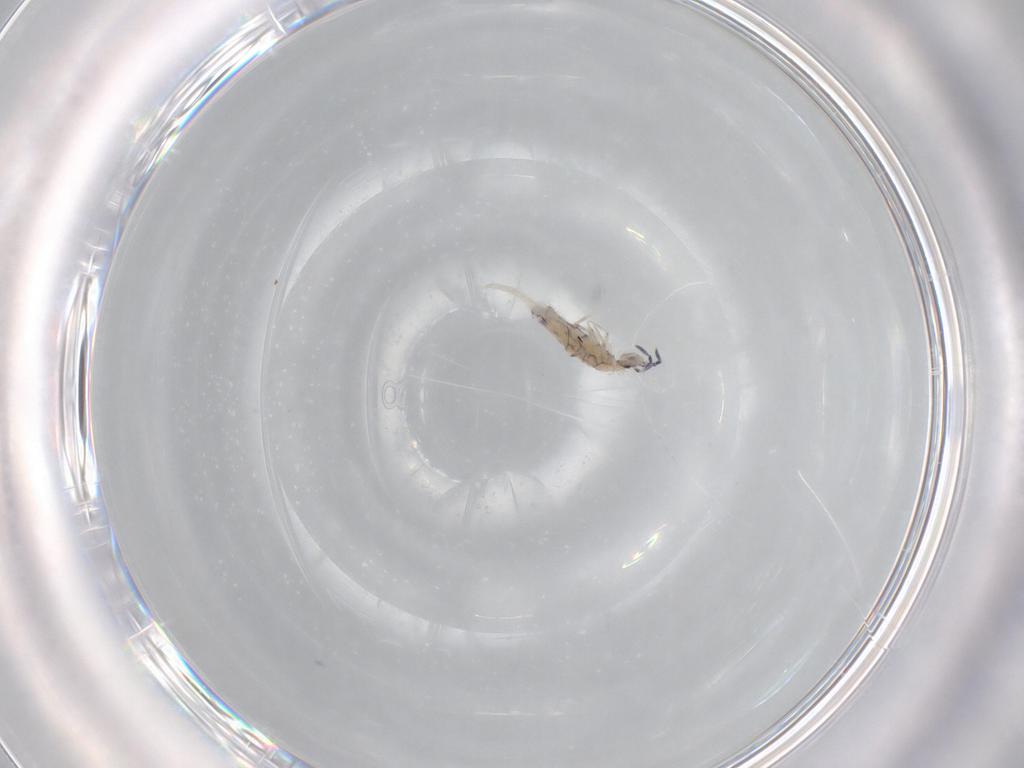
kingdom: Animalia
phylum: Arthropoda
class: Collembola
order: Entomobryomorpha
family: Entomobryidae
